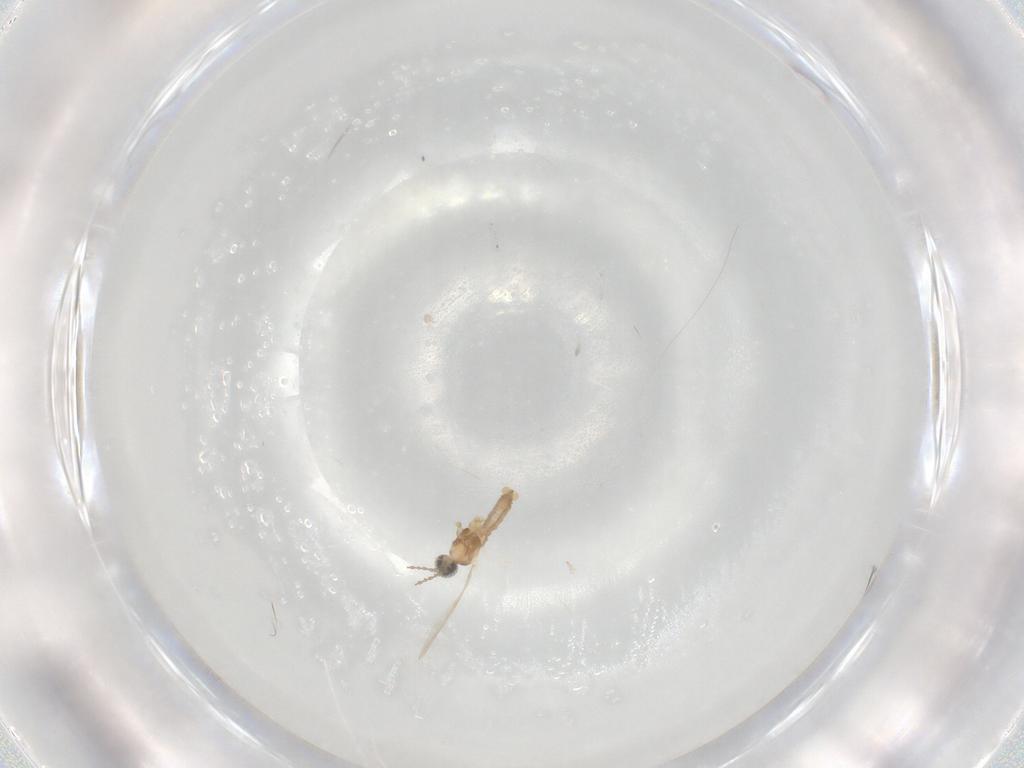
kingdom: Animalia
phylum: Arthropoda
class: Insecta
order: Diptera
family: Cecidomyiidae
